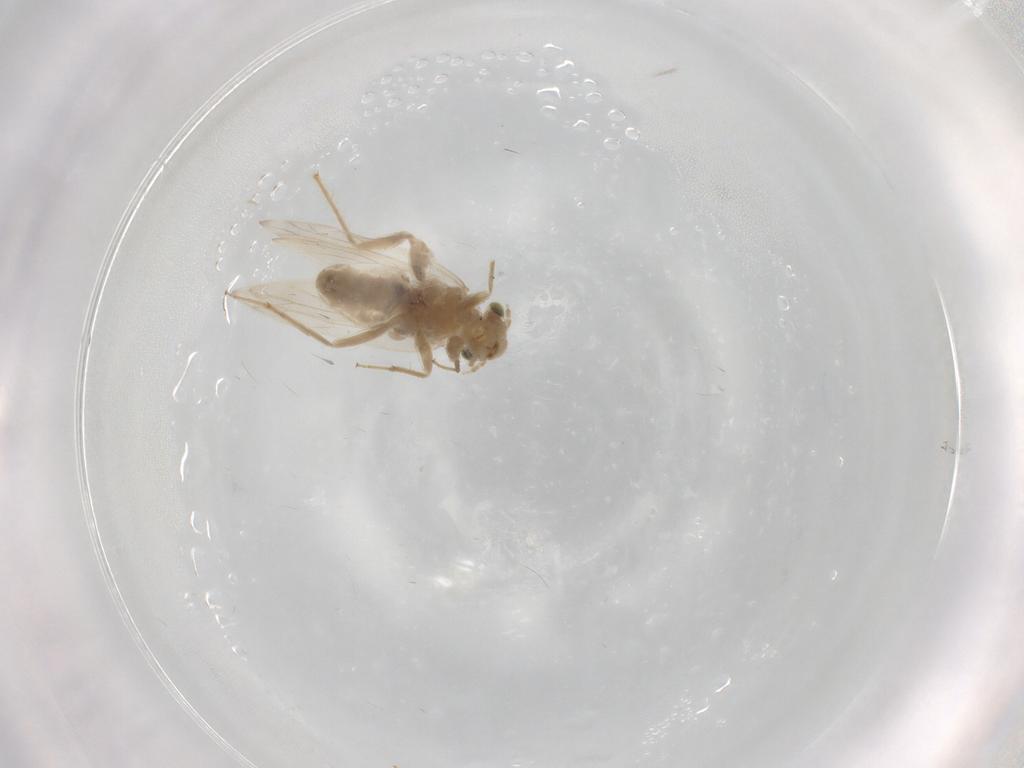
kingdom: Animalia
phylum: Arthropoda
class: Insecta
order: Psocodea
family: Lepidopsocidae
